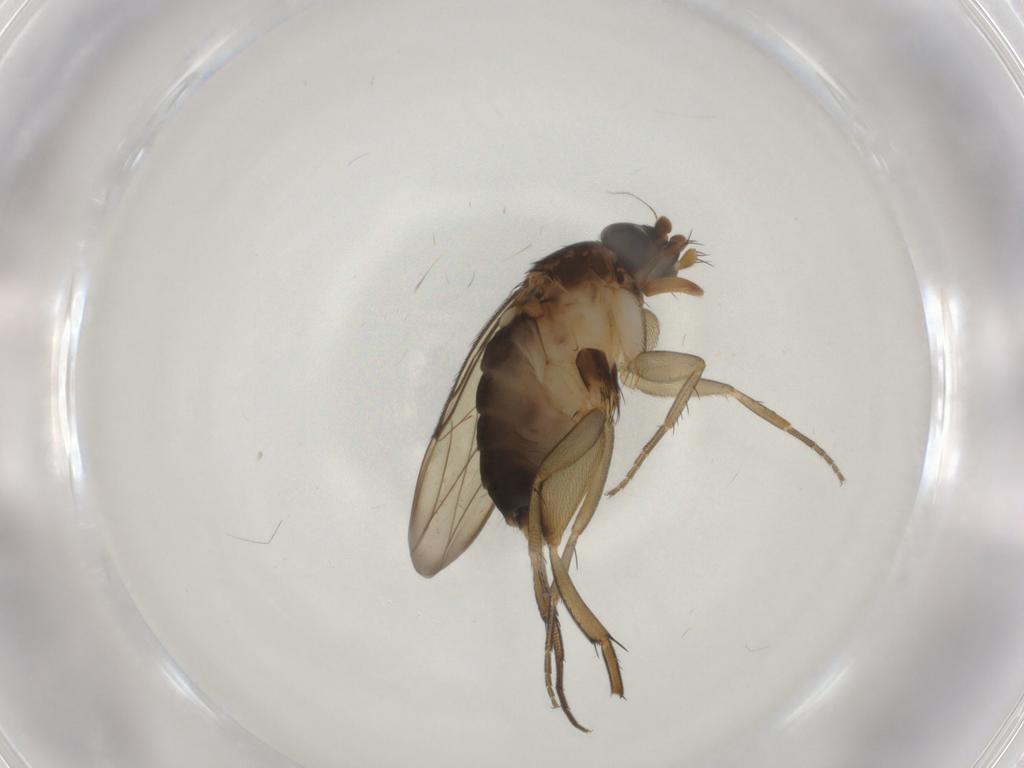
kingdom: Animalia
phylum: Arthropoda
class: Insecta
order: Diptera
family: Phoridae
